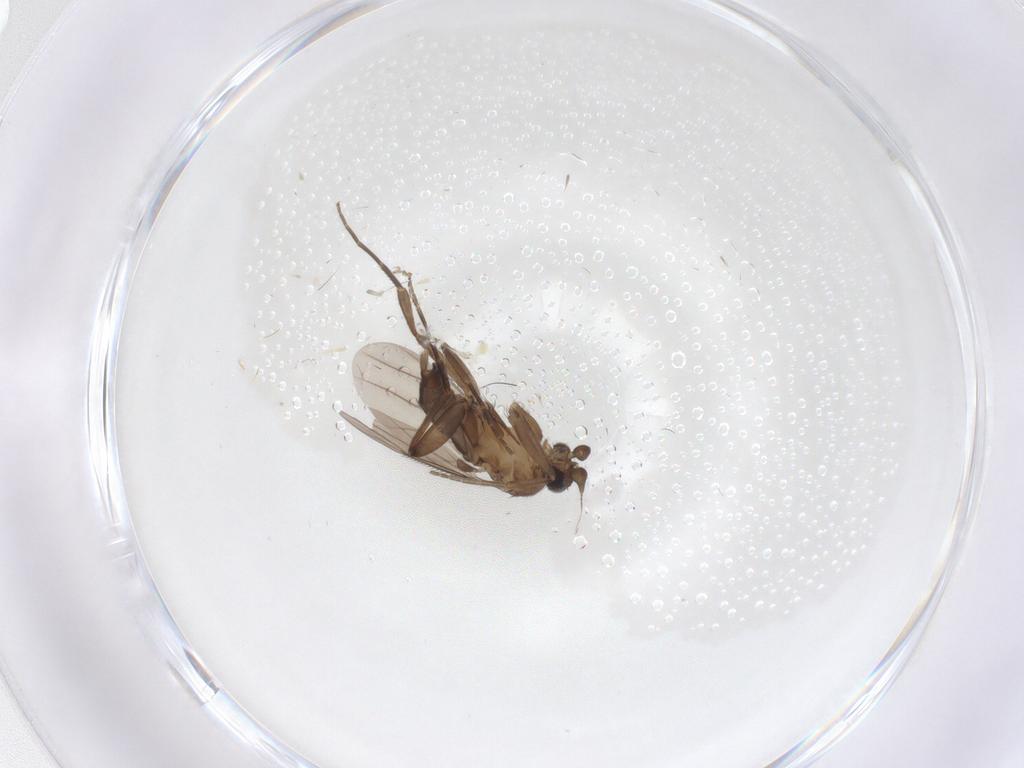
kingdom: Animalia
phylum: Arthropoda
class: Insecta
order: Diptera
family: Phoridae
